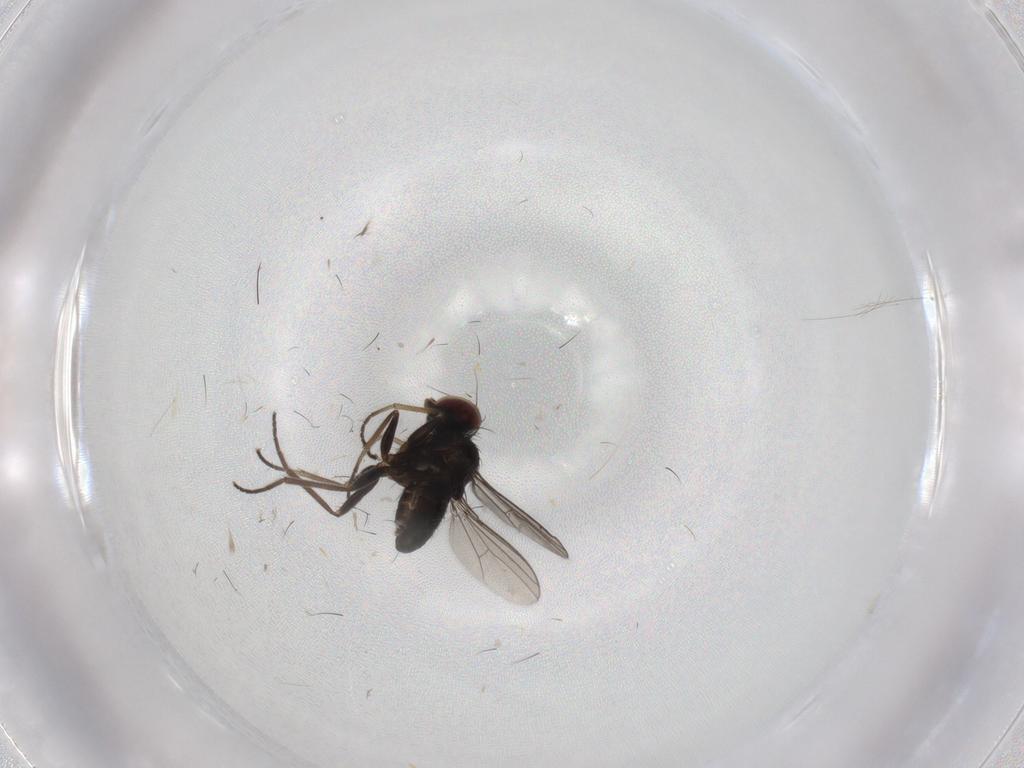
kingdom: Animalia
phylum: Arthropoda
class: Insecta
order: Diptera
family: Dolichopodidae
